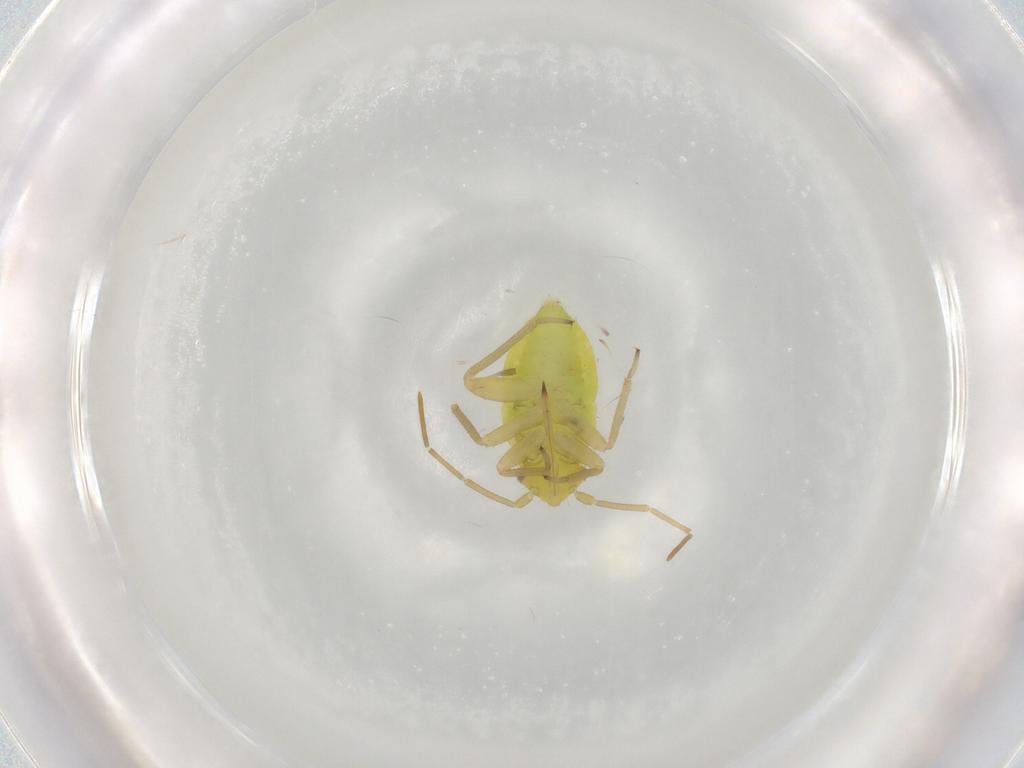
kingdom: Animalia
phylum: Arthropoda
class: Insecta
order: Hemiptera
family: Miridae
